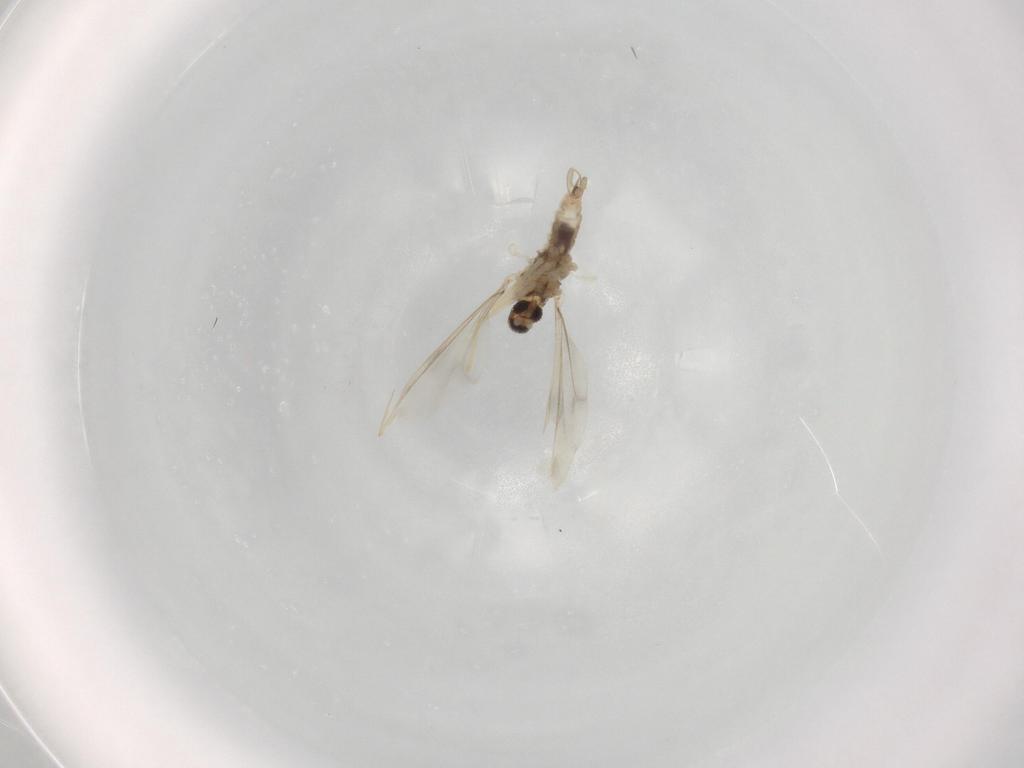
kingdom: Animalia
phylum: Arthropoda
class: Insecta
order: Diptera
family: Cecidomyiidae
